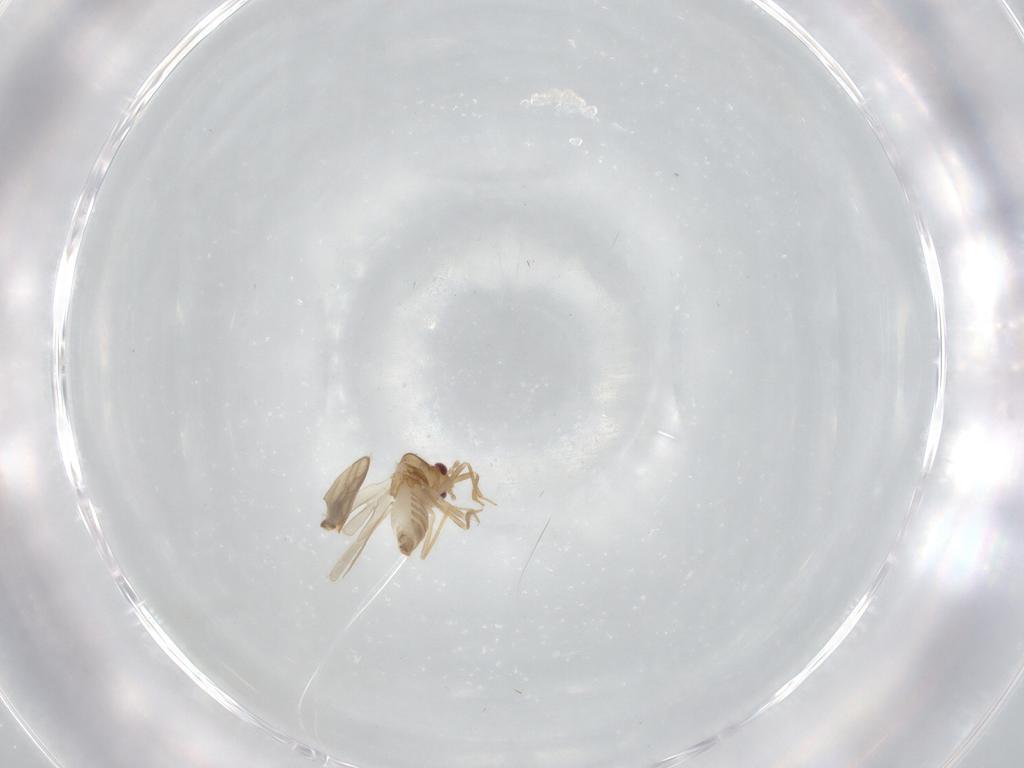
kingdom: Animalia
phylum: Arthropoda
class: Insecta
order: Hemiptera
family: Schizopteridae
